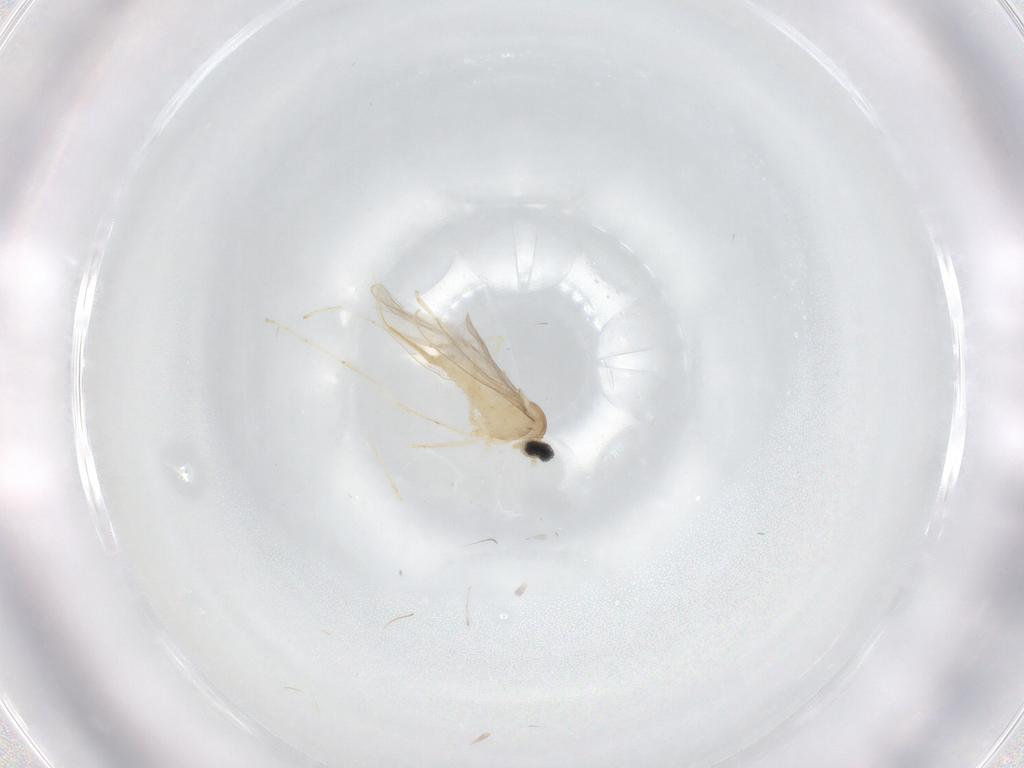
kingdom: Animalia
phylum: Arthropoda
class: Insecta
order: Diptera
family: Cecidomyiidae
